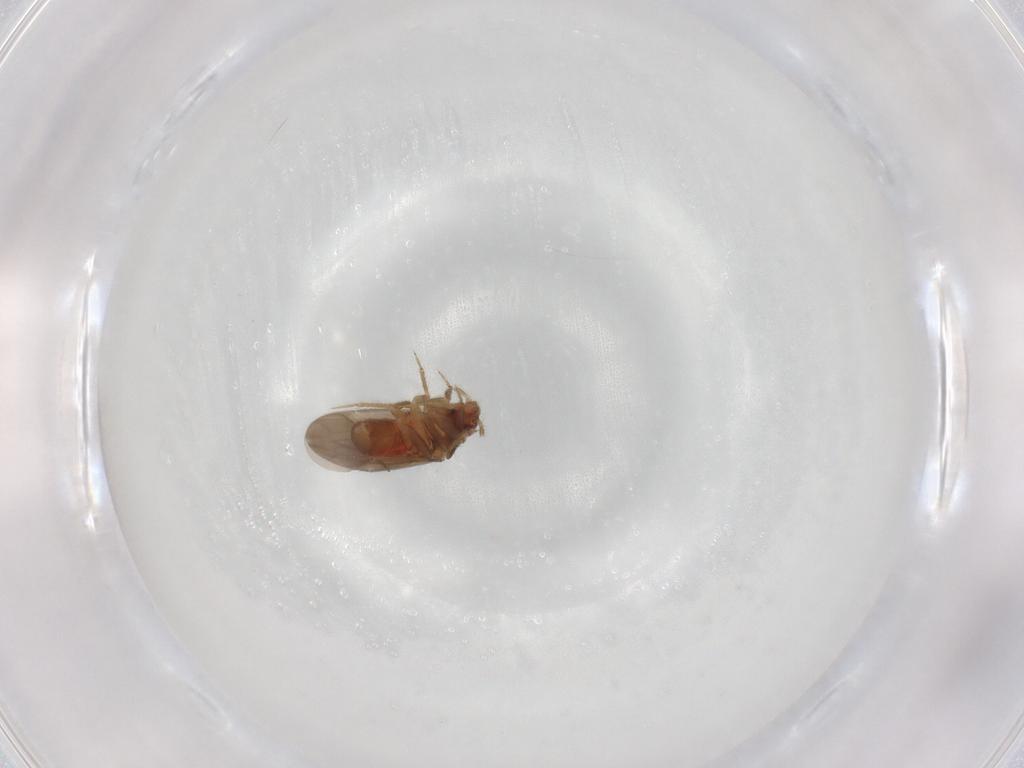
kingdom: Animalia
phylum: Arthropoda
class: Insecta
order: Hemiptera
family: Ceratocombidae
